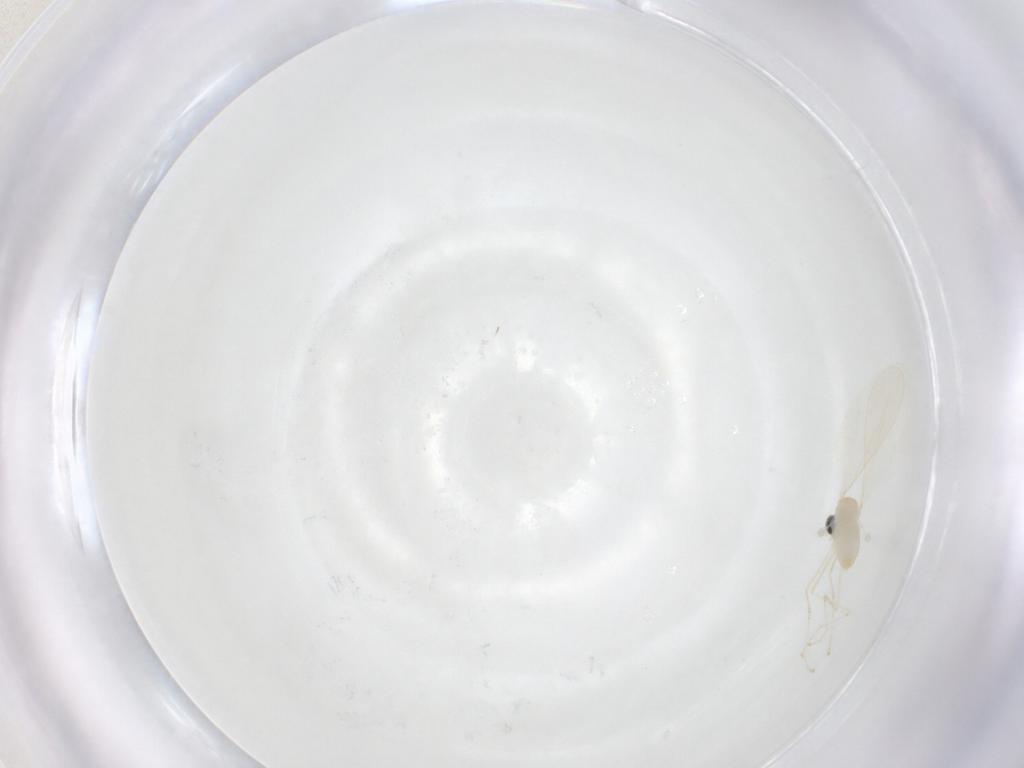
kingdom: Animalia
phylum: Arthropoda
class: Insecta
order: Diptera
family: Cecidomyiidae
